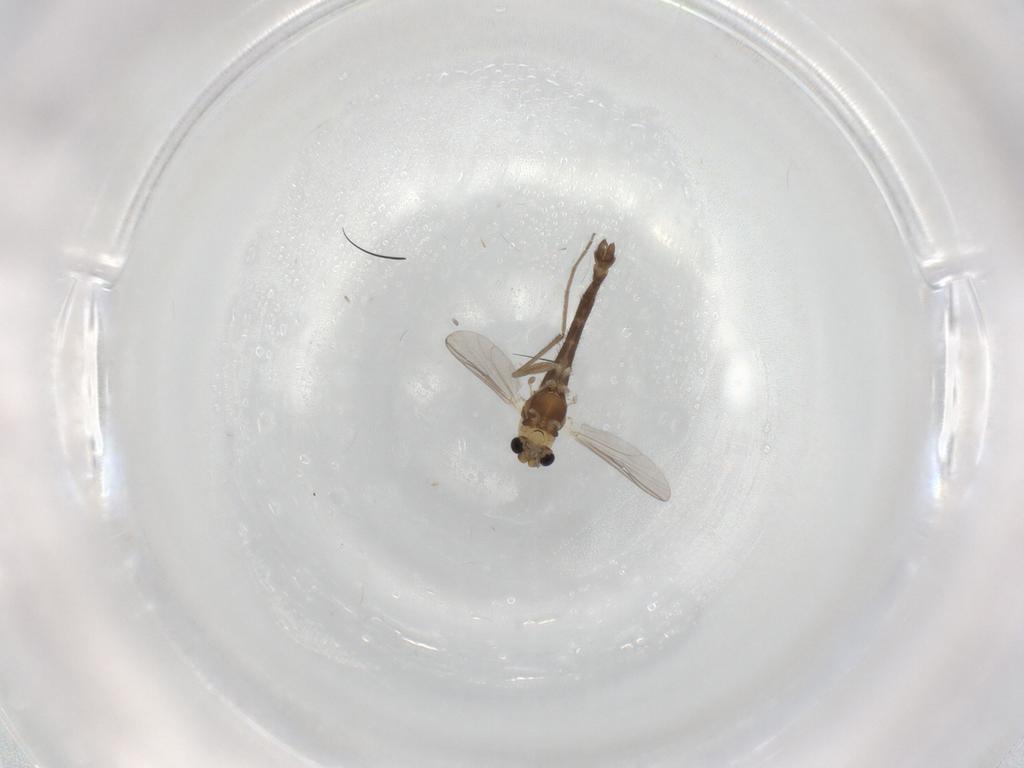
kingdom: Animalia
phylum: Arthropoda
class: Insecta
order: Diptera
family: Chironomidae
